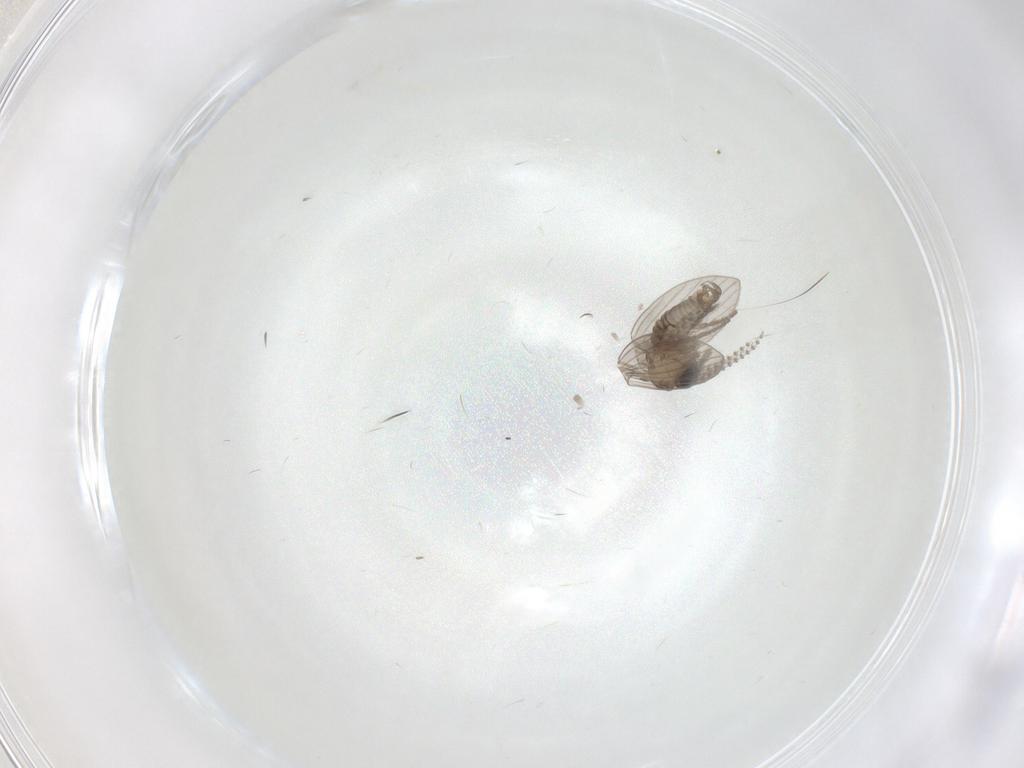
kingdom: Animalia
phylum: Arthropoda
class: Insecta
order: Diptera
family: Psychodidae
